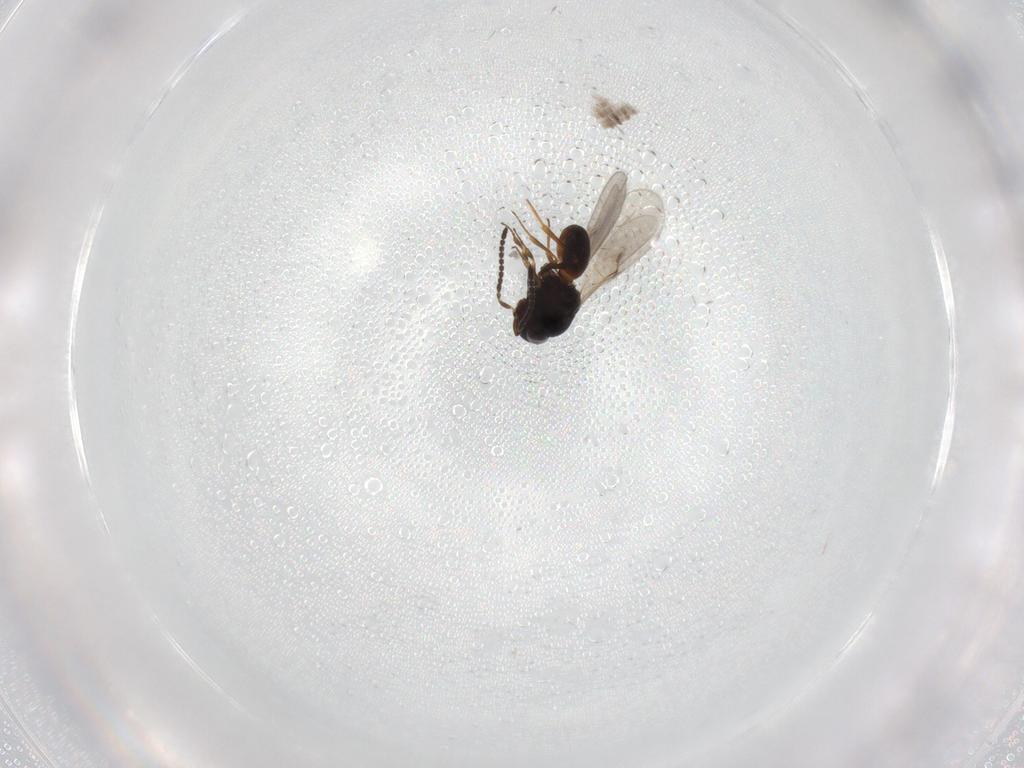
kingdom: Animalia
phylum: Arthropoda
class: Insecta
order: Hymenoptera
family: Scelionidae
